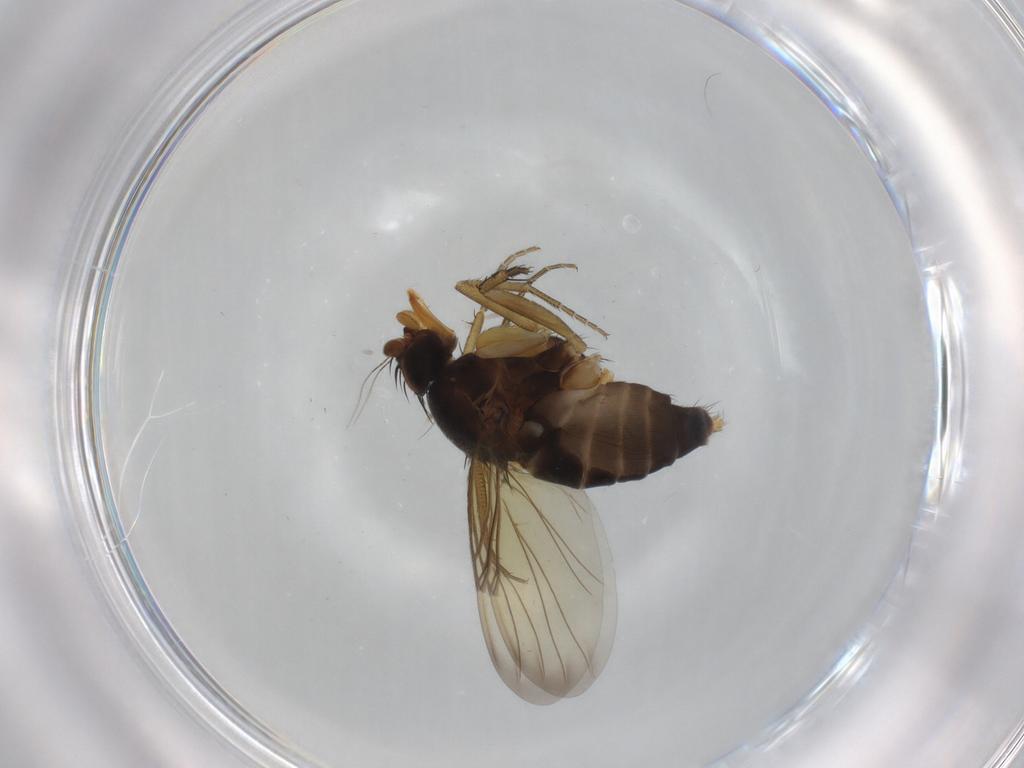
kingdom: Animalia
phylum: Arthropoda
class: Insecta
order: Diptera
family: Phoridae
